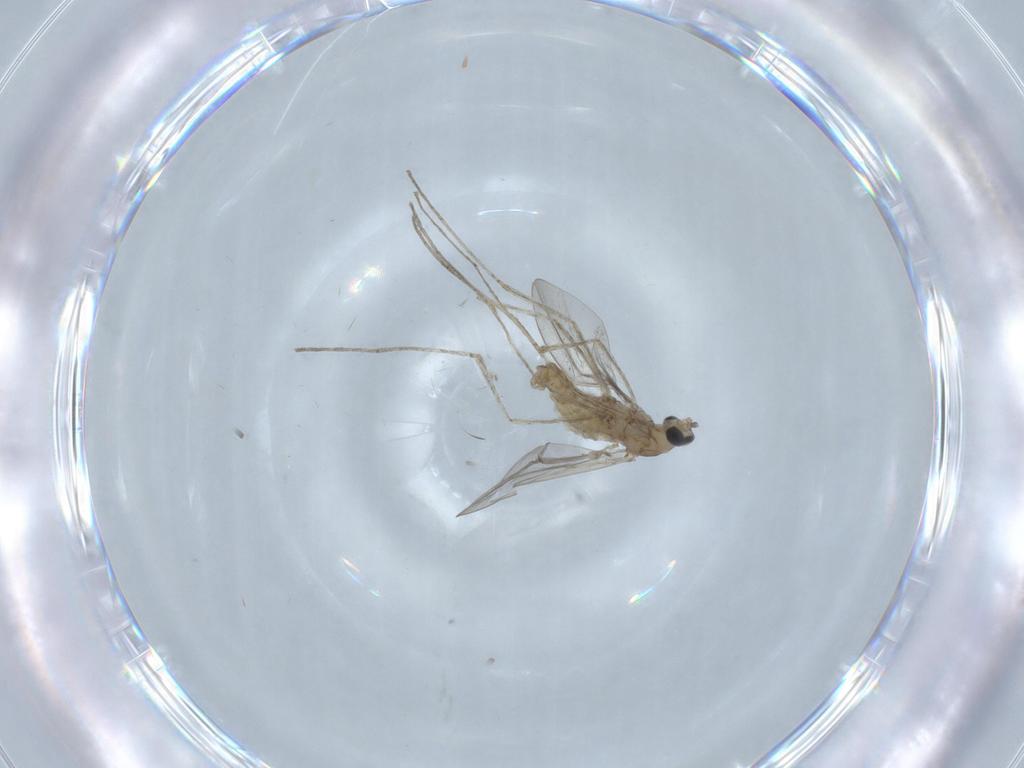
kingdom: Animalia
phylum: Arthropoda
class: Insecta
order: Diptera
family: Cecidomyiidae
